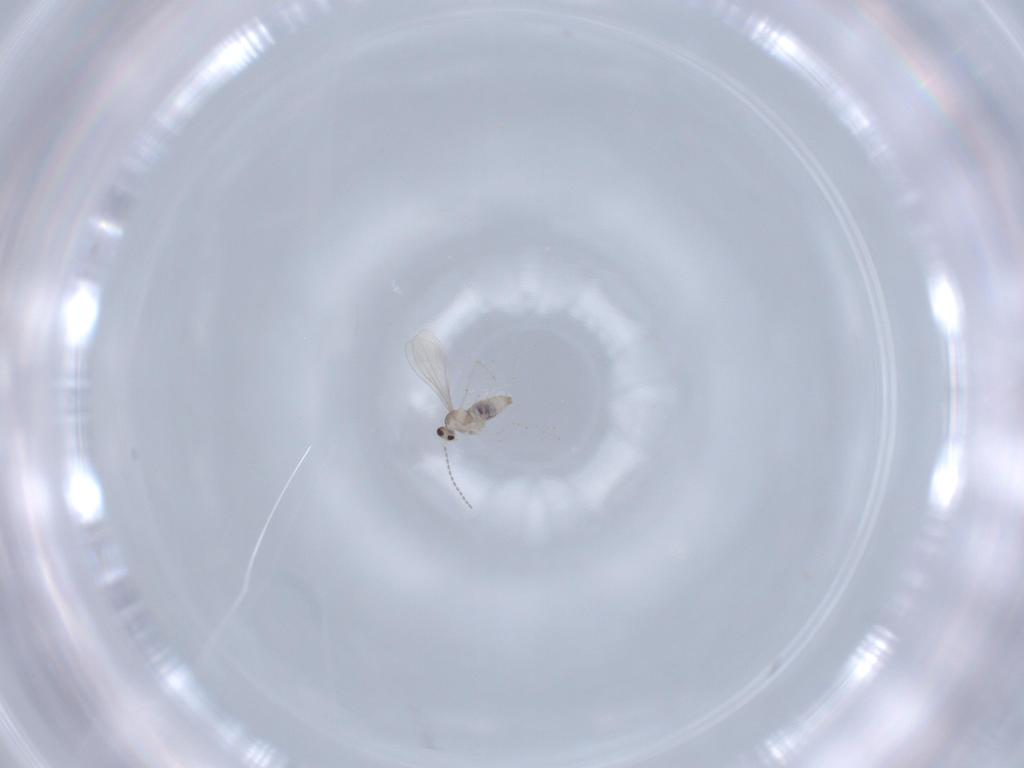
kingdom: Animalia
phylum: Arthropoda
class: Insecta
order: Diptera
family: Cecidomyiidae
